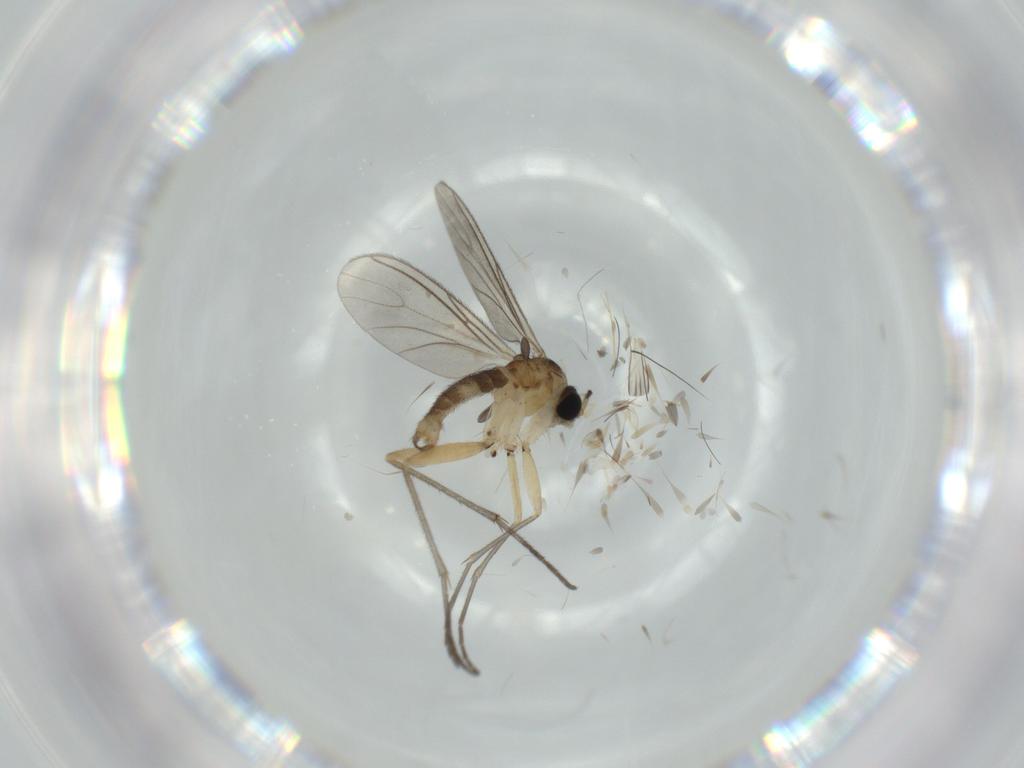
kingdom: Animalia
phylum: Arthropoda
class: Insecta
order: Diptera
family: Sciaridae
